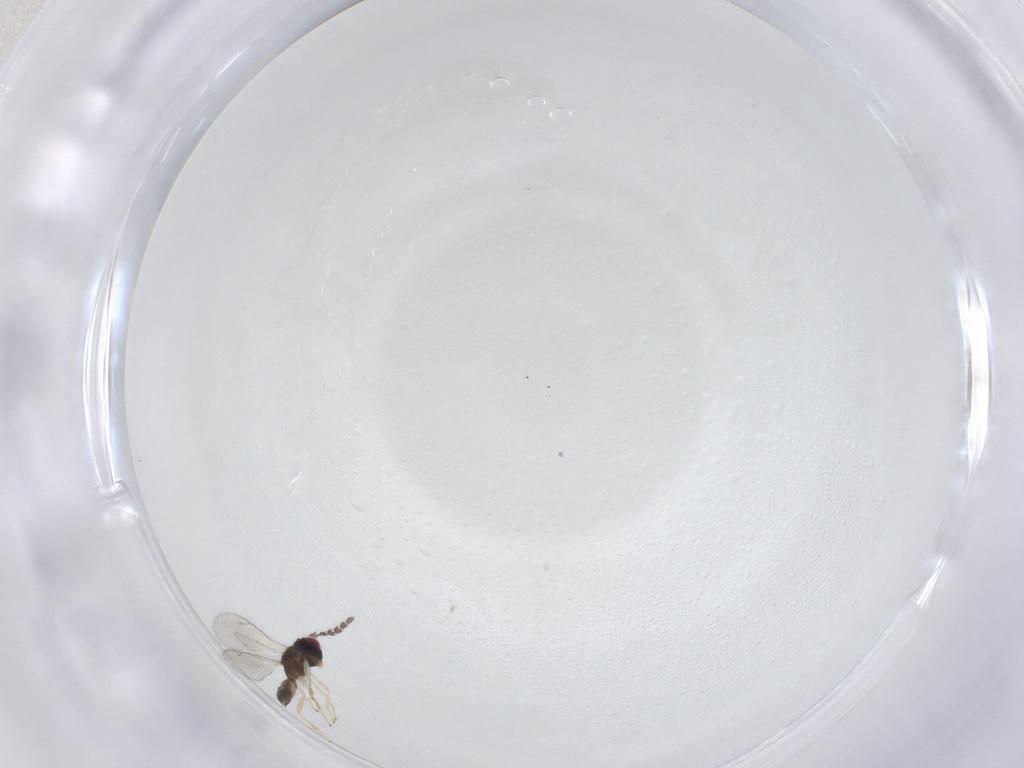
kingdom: Animalia
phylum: Arthropoda
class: Insecta
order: Hymenoptera
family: Eulophidae
